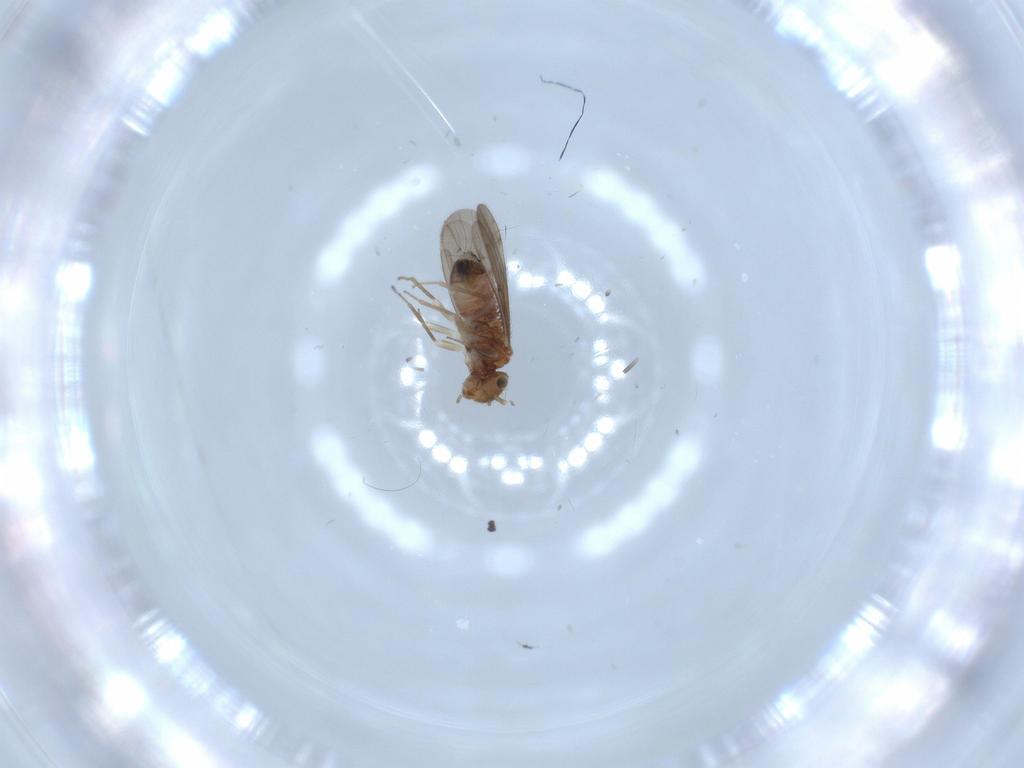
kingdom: Animalia
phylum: Arthropoda
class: Insecta
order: Psocodea
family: Ectopsocidae
